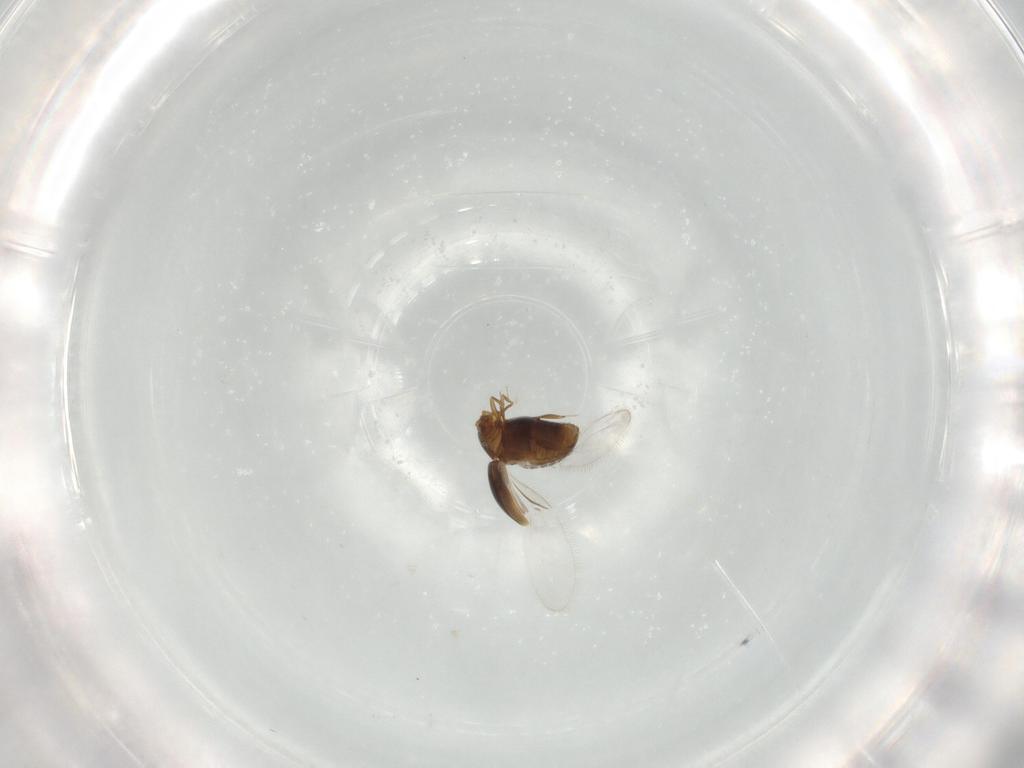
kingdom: Animalia
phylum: Arthropoda
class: Insecta
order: Coleoptera
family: Corylophidae
